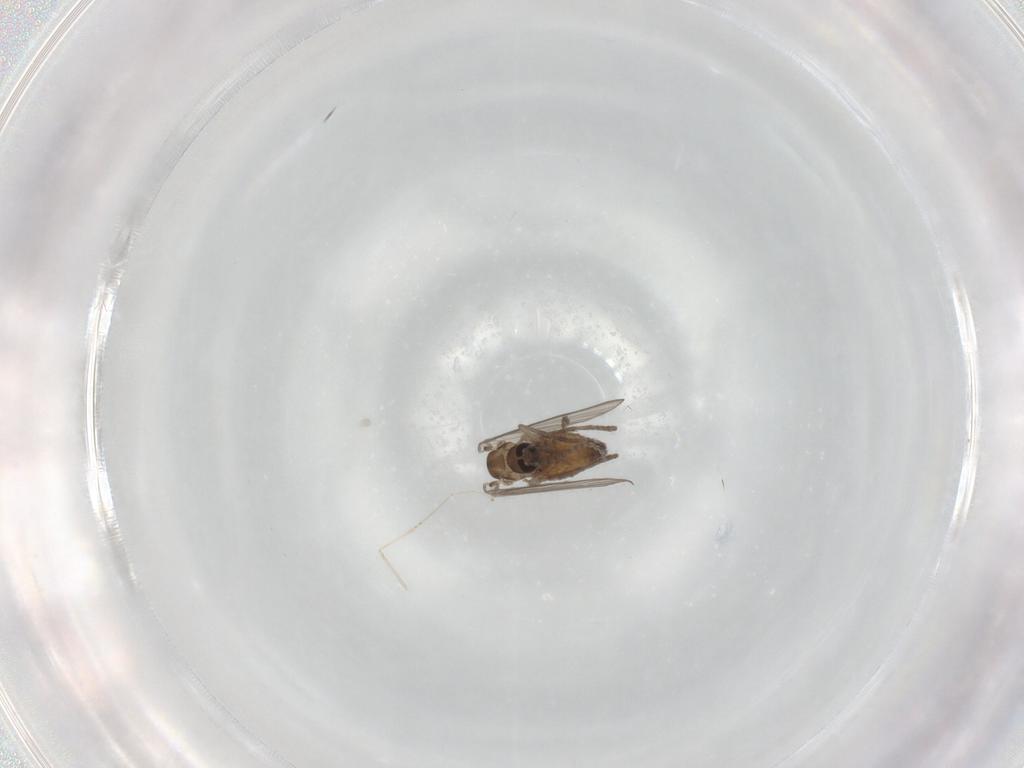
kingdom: Animalia
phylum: Arthropoda
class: Insecta
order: Diptera
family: Psychodidae
